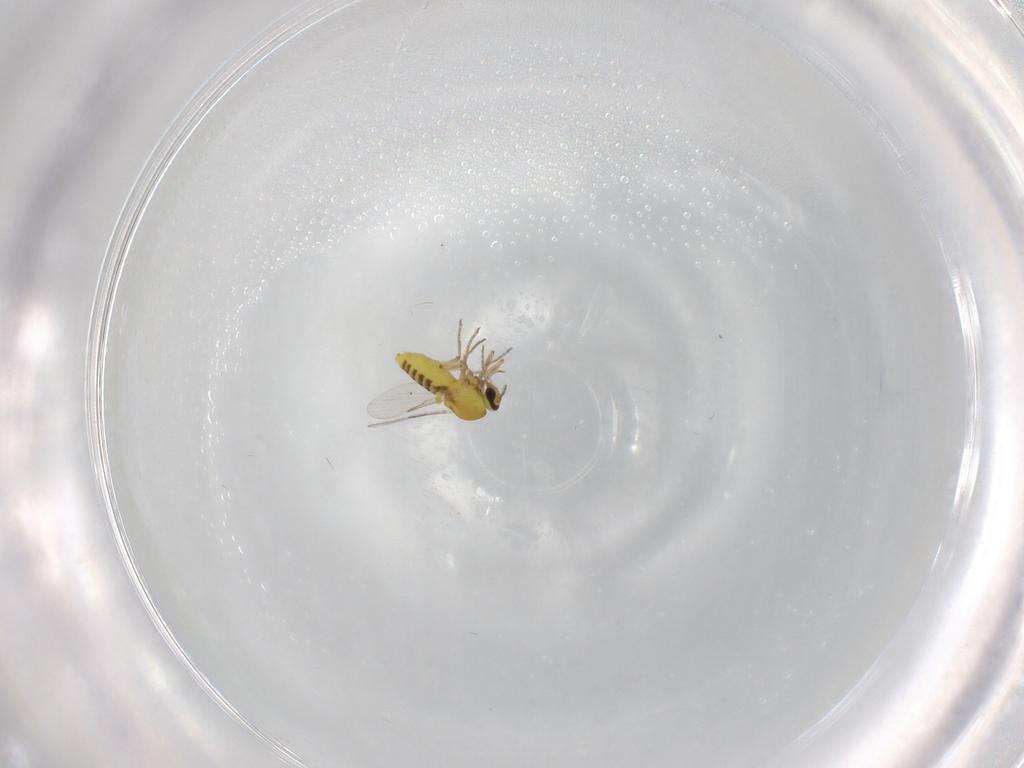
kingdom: Animalia
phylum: Arthropoda
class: Insecta
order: Diptera
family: Ceratopogonidae
